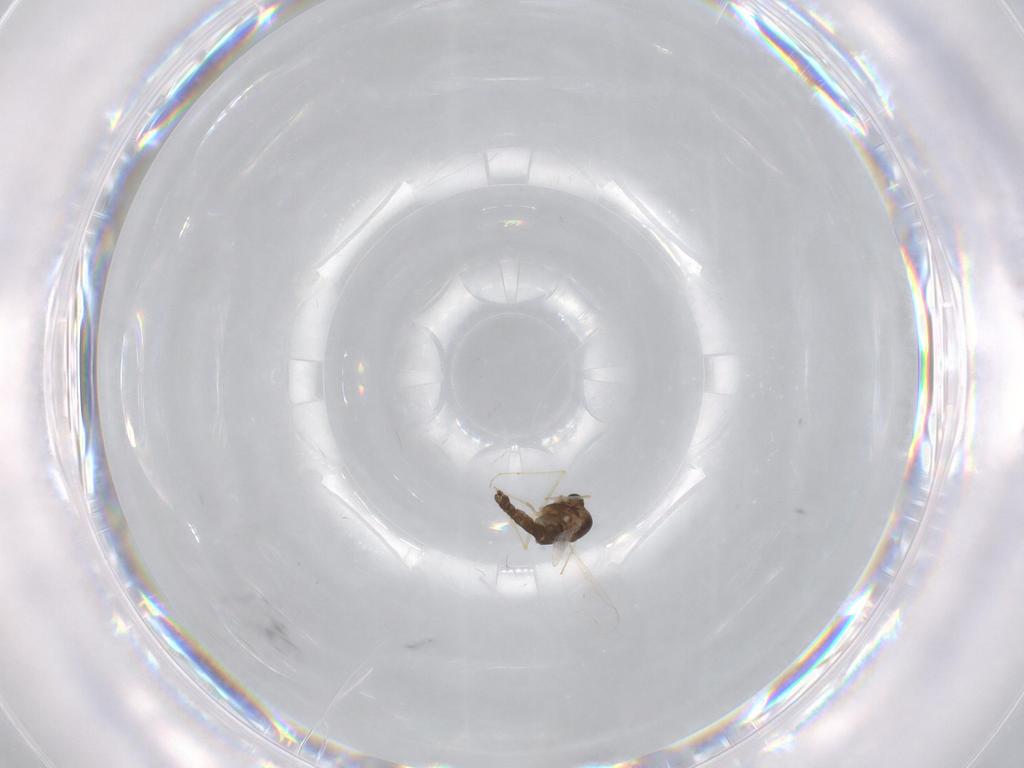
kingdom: Animalia
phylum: Arthropoda
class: Insecta
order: Diptera
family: Chironomidae
